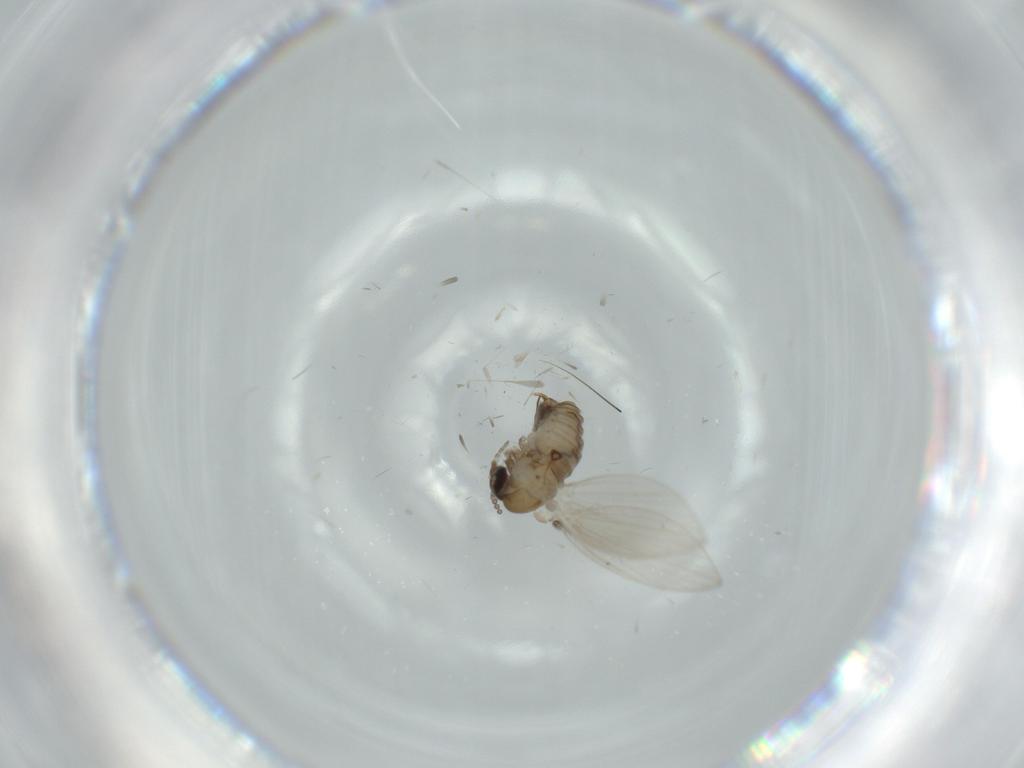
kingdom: Animalia
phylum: Arthropoda
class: Insecta
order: Diptera
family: Psychodidae
